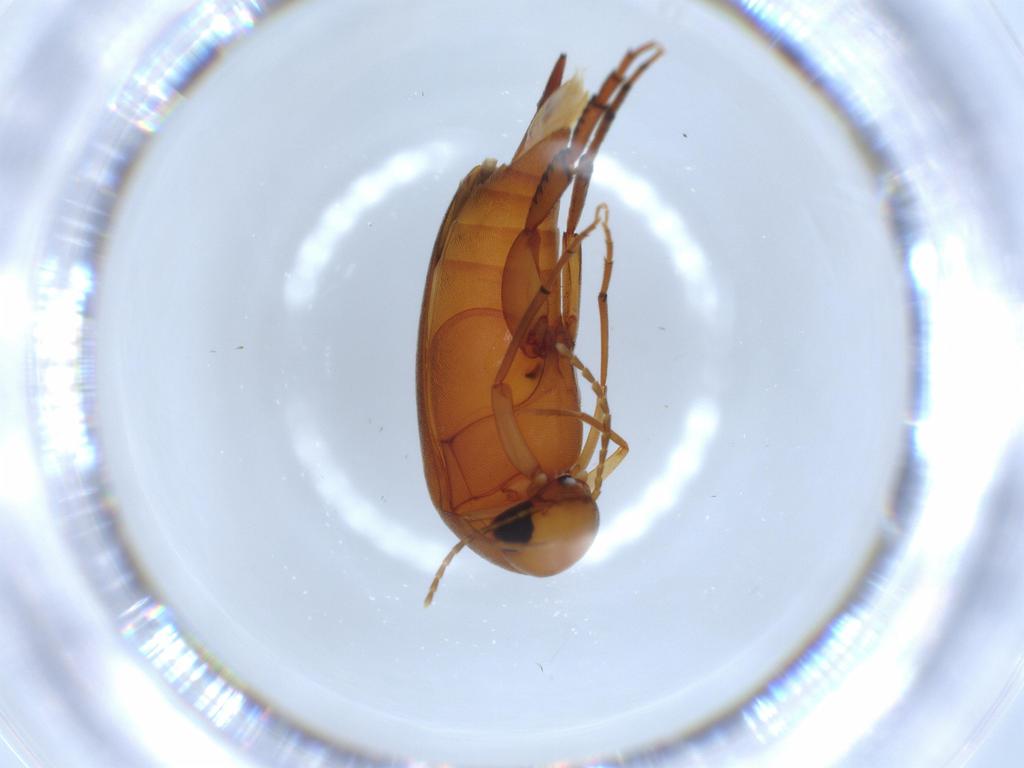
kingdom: Animalia
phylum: Arthropoda
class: Insecta
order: Coleoptera
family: Mordellidae
